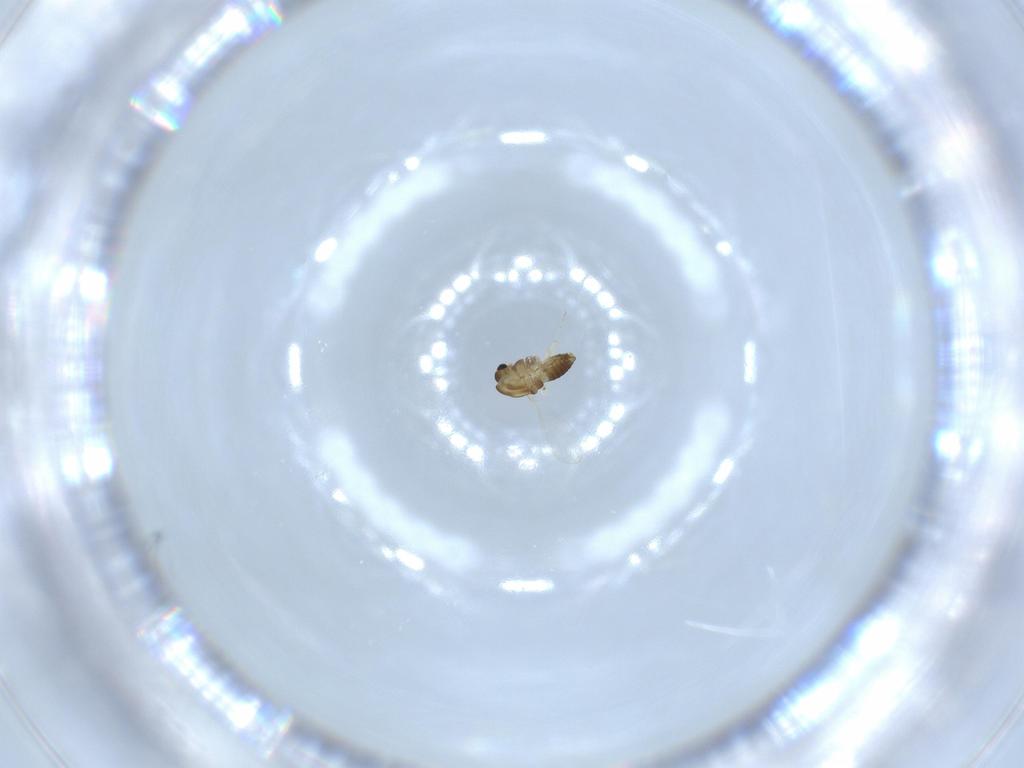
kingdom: Animalia
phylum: Arthropoda
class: Insecta
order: Diptera
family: Chironomidae
